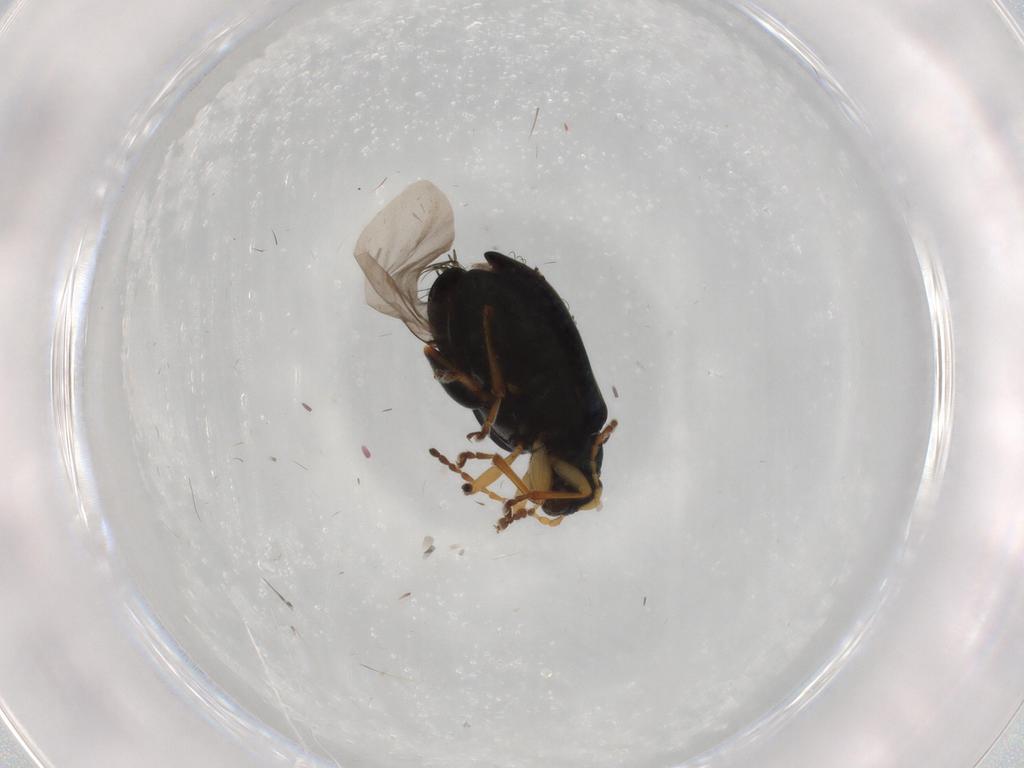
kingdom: Animalia
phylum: Arthropoda
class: Insecta
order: Coleoptera
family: Chrysomelidae
